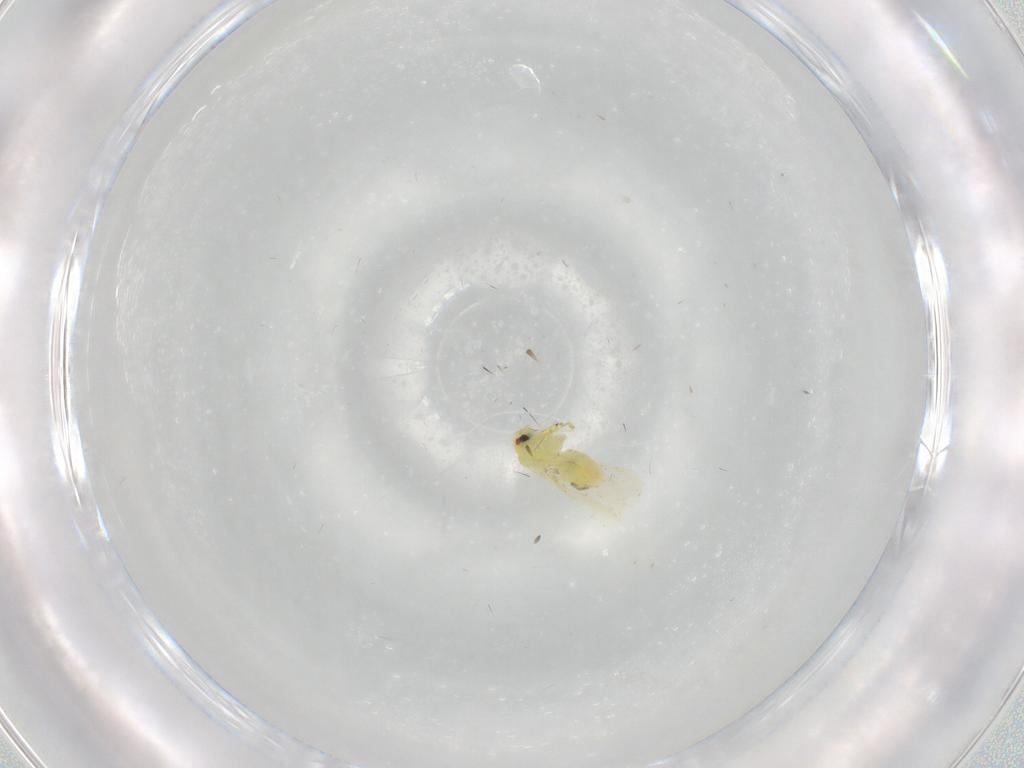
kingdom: Animalia
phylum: Arthropoda
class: Insecta
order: Hemiptera
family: Aleyrodidae
